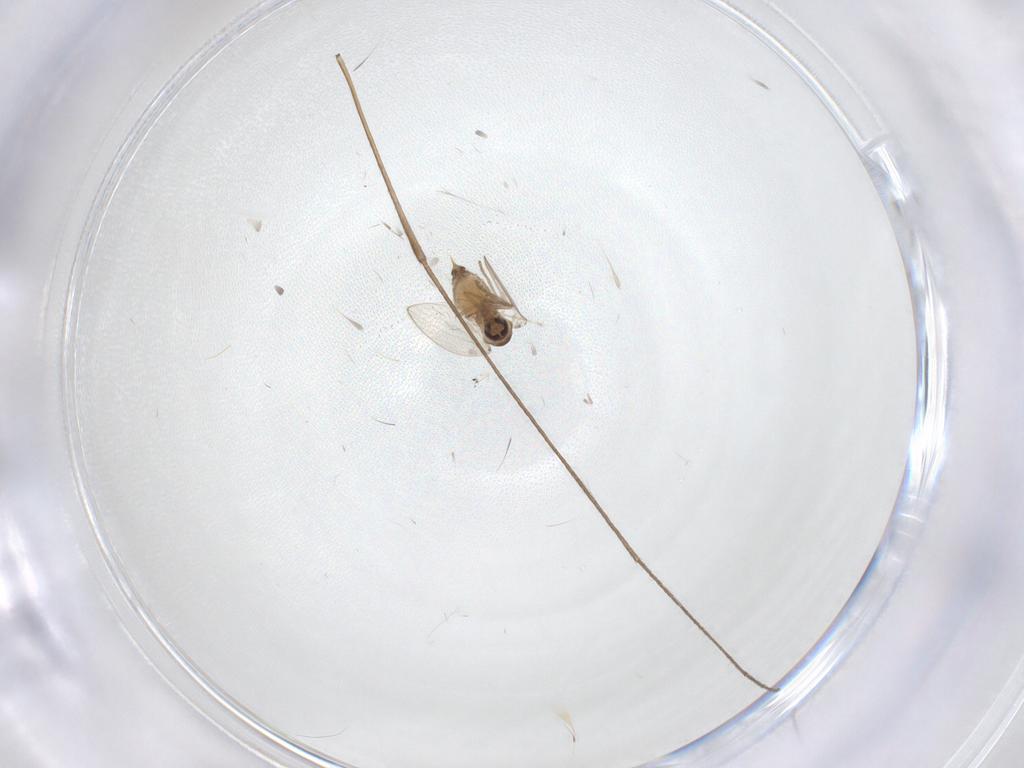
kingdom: Animalia
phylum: Arthropoda
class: Insecta
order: Diptera
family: Psychodidae
